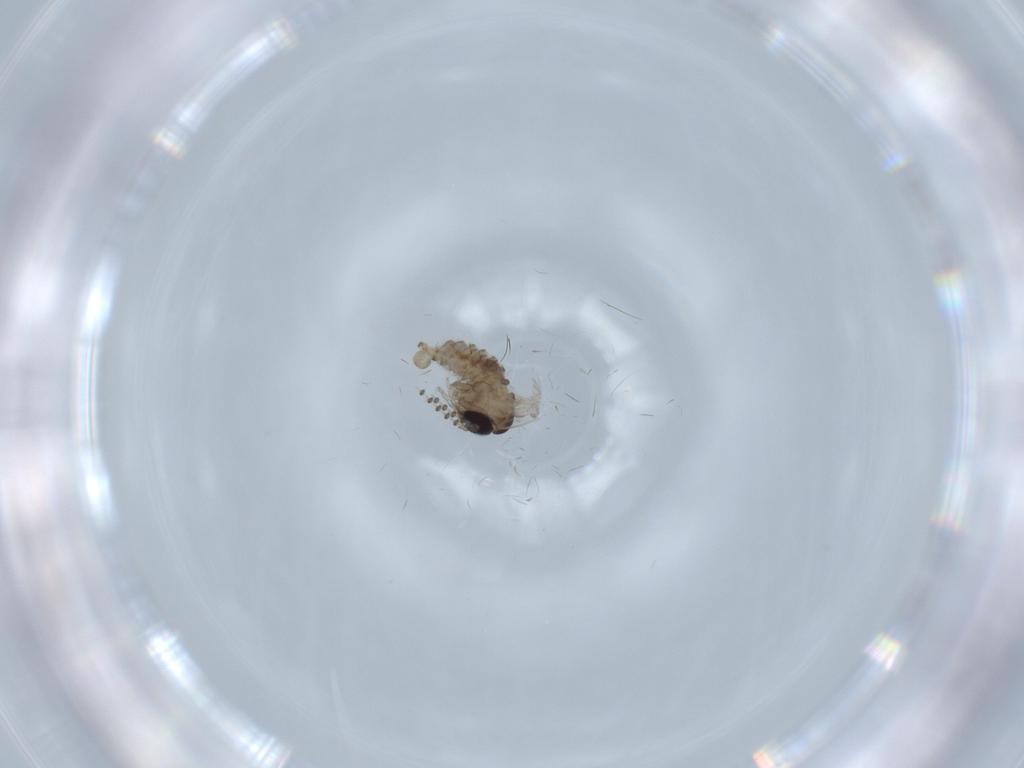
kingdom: Animalia
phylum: Arthropoda
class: Insecta
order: Diptera
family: Psychodidae
